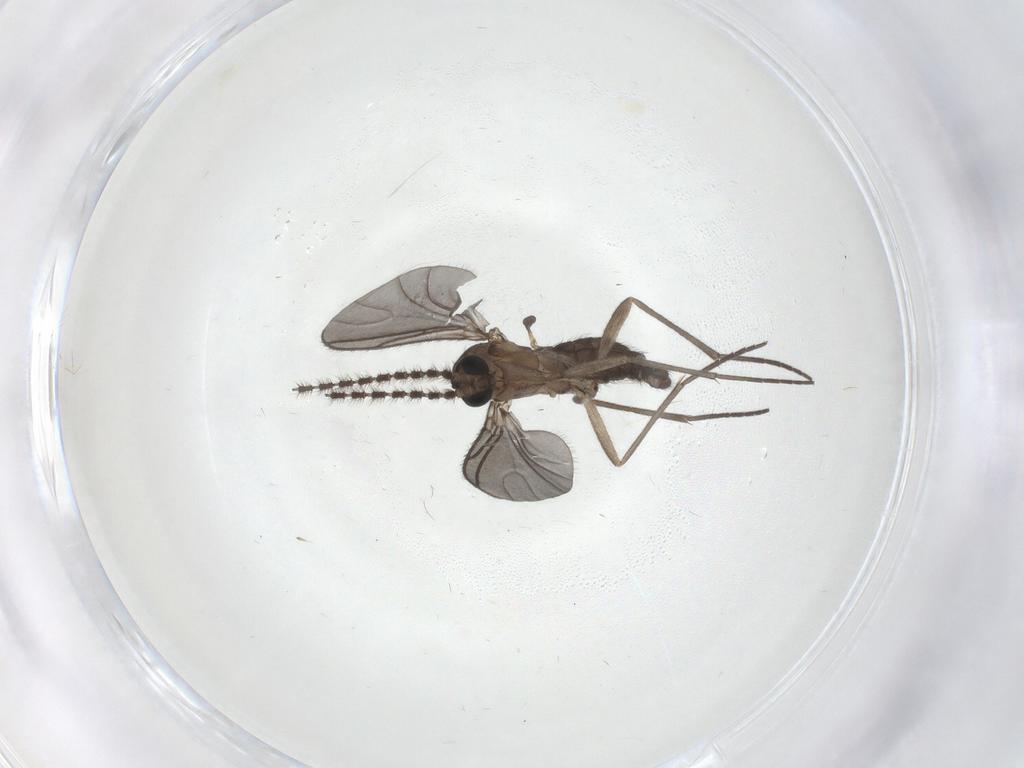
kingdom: Animalia
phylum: Arthropoda
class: Insecta
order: Diptera
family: Sciaridae
